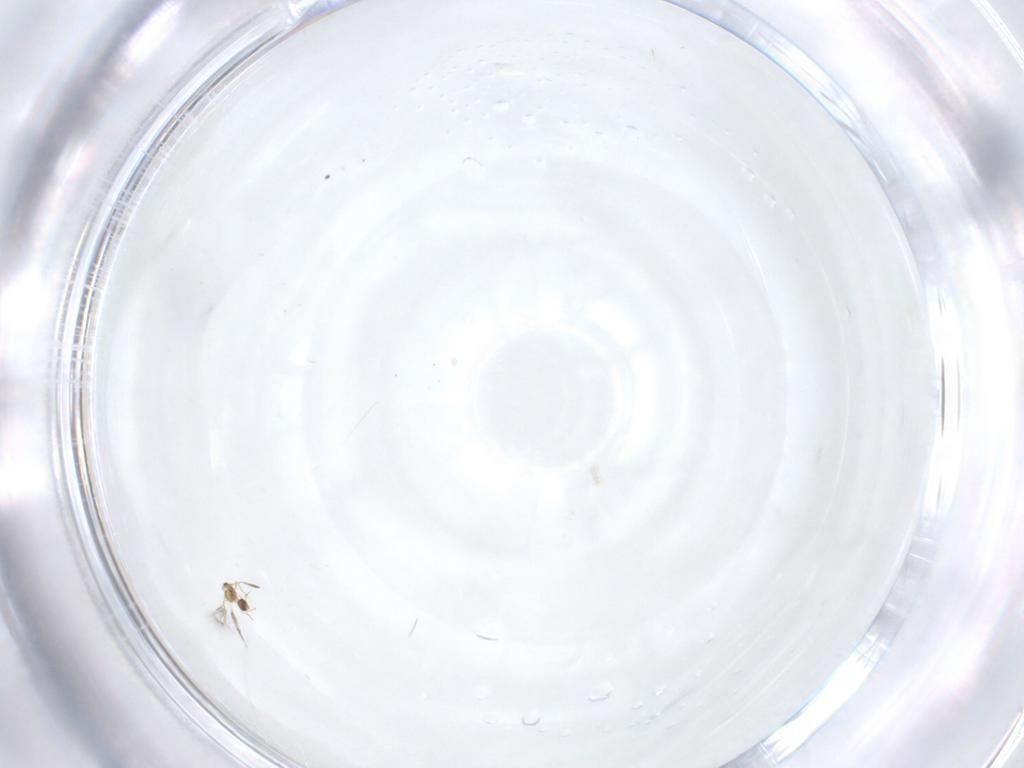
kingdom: Animalia
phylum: Arthropoda
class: Insecta
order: Hymenoptera
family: Mymarommatidae
